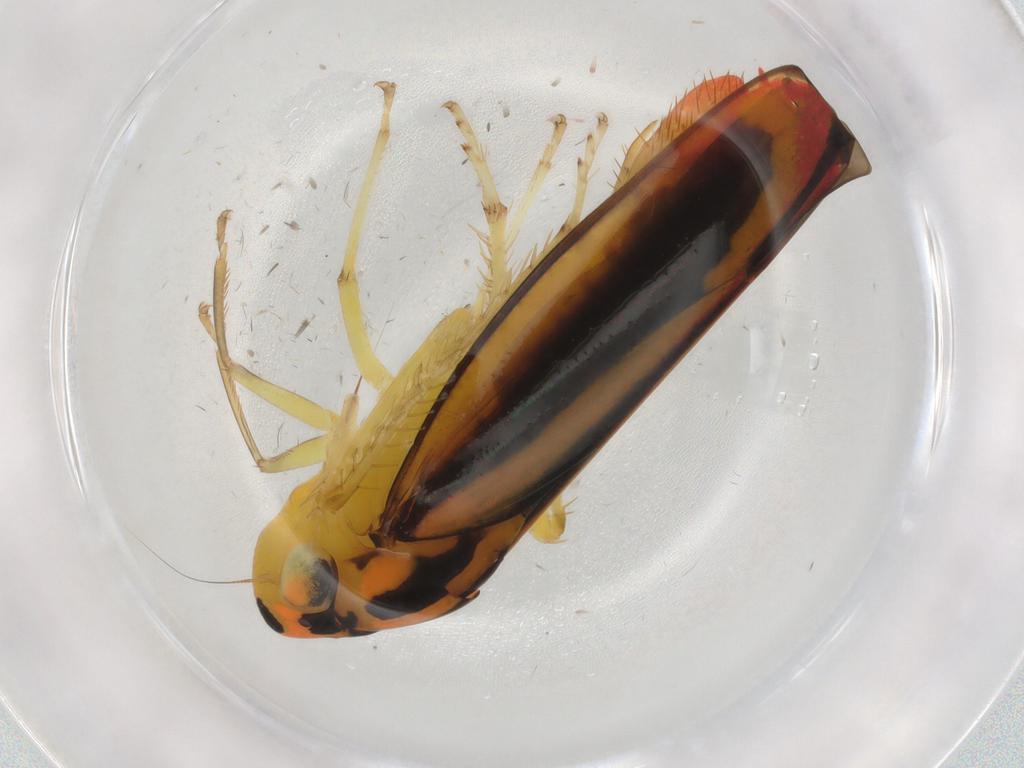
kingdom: Animalia
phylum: Arthropoda
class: Insecta
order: Hemiptera
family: Cicadellidae
